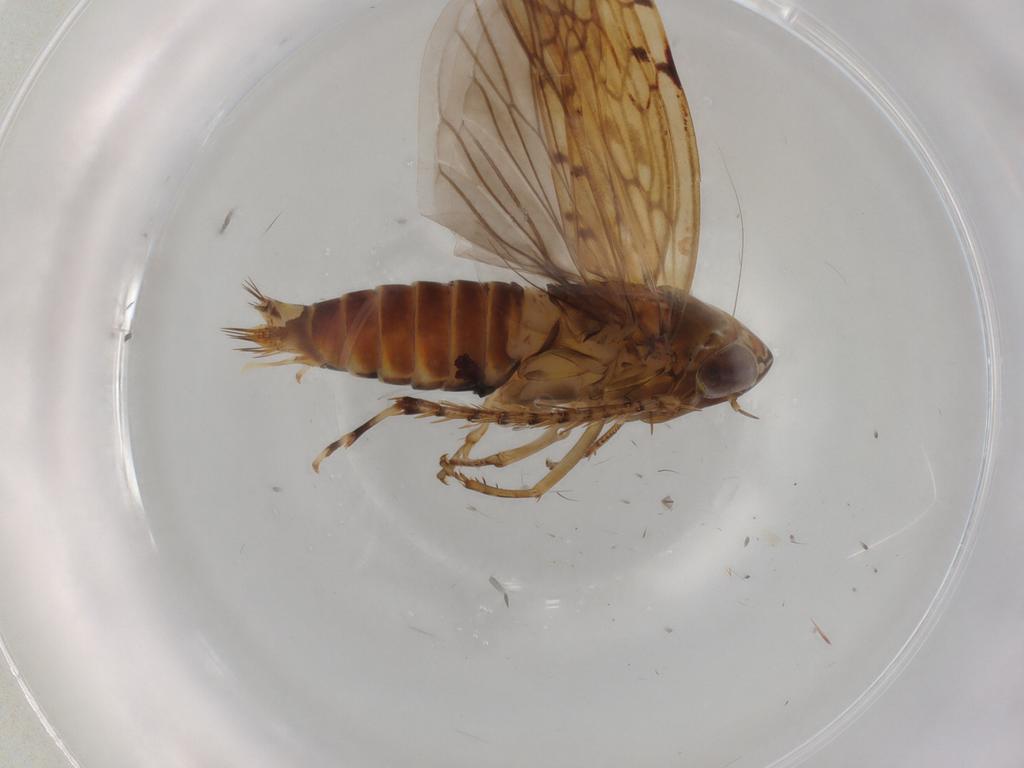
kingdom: Animalia
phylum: Arthropoda
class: Insecta
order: Hemiptera
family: Cicadellidae
